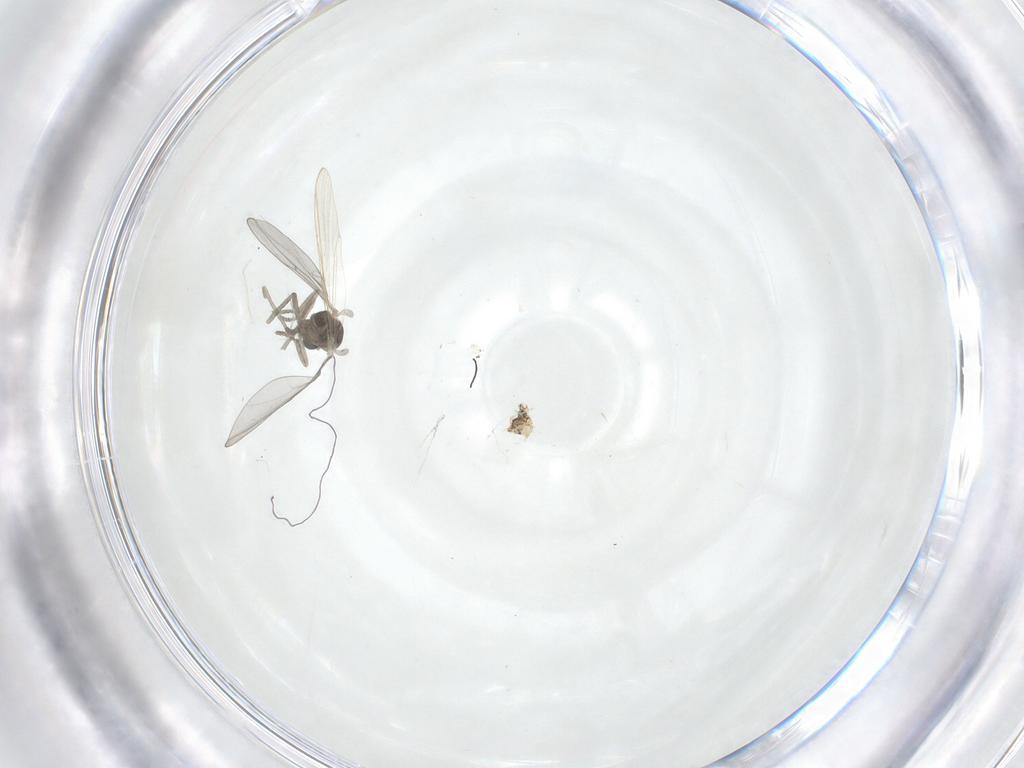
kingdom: Animalia
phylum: Arthropoda
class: Insecta
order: Diptera
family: Cecidomyiidae
